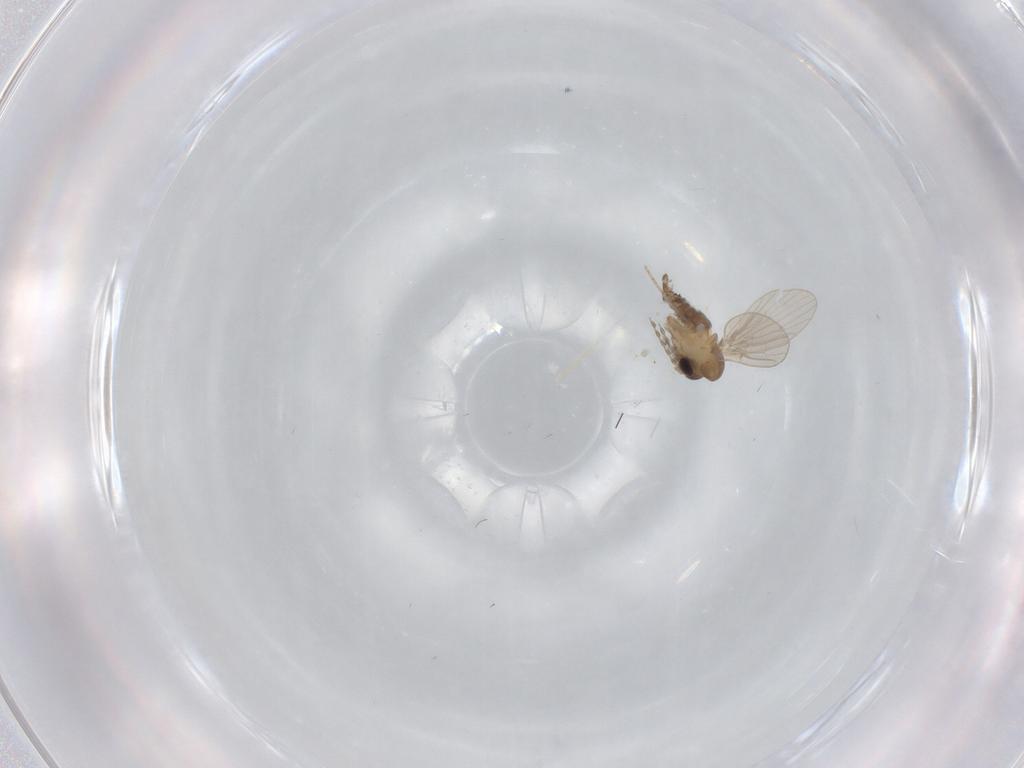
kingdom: Animalia
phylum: Arthropoda
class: Insecta
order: Diptera
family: Psychodidae
